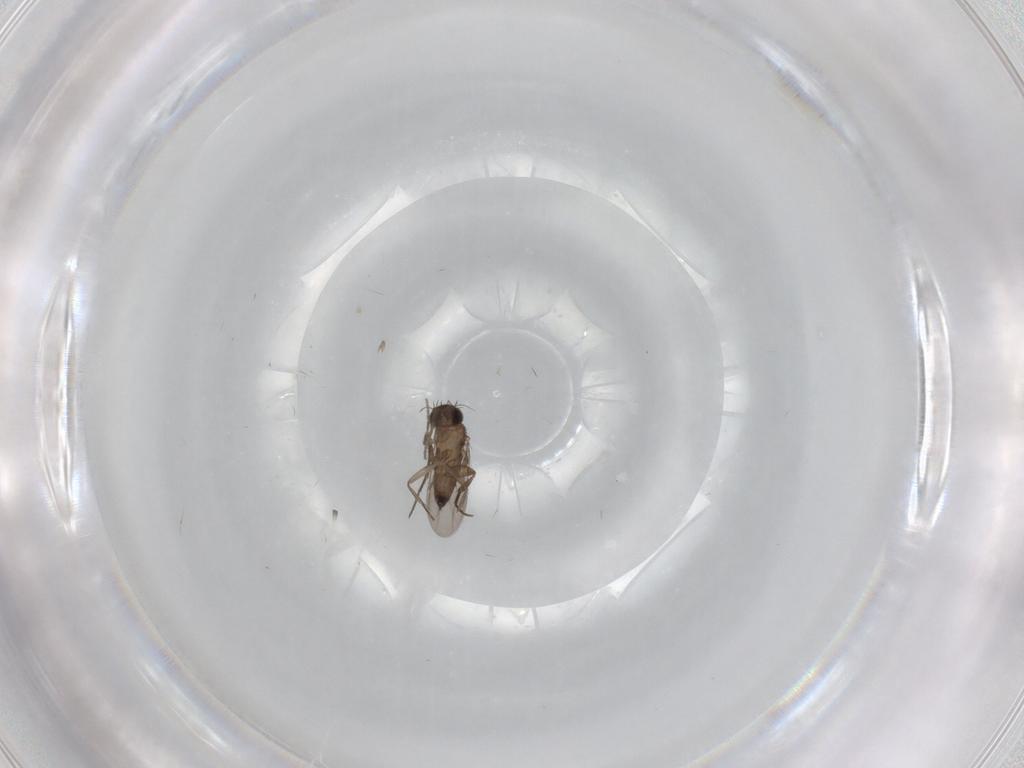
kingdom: Animalia
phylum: Arthropoda
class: Insecta
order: Diptera
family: Phoridae
